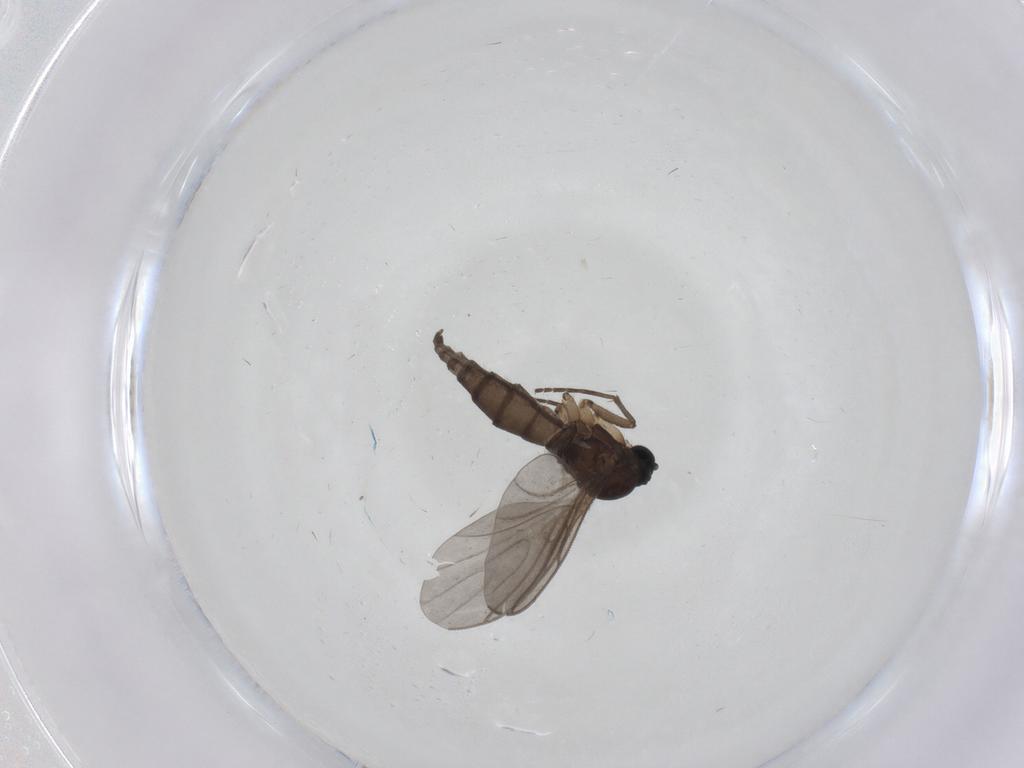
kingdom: Animalia
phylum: Arthropoda
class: Insecta
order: Diptera
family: Sciaridae
